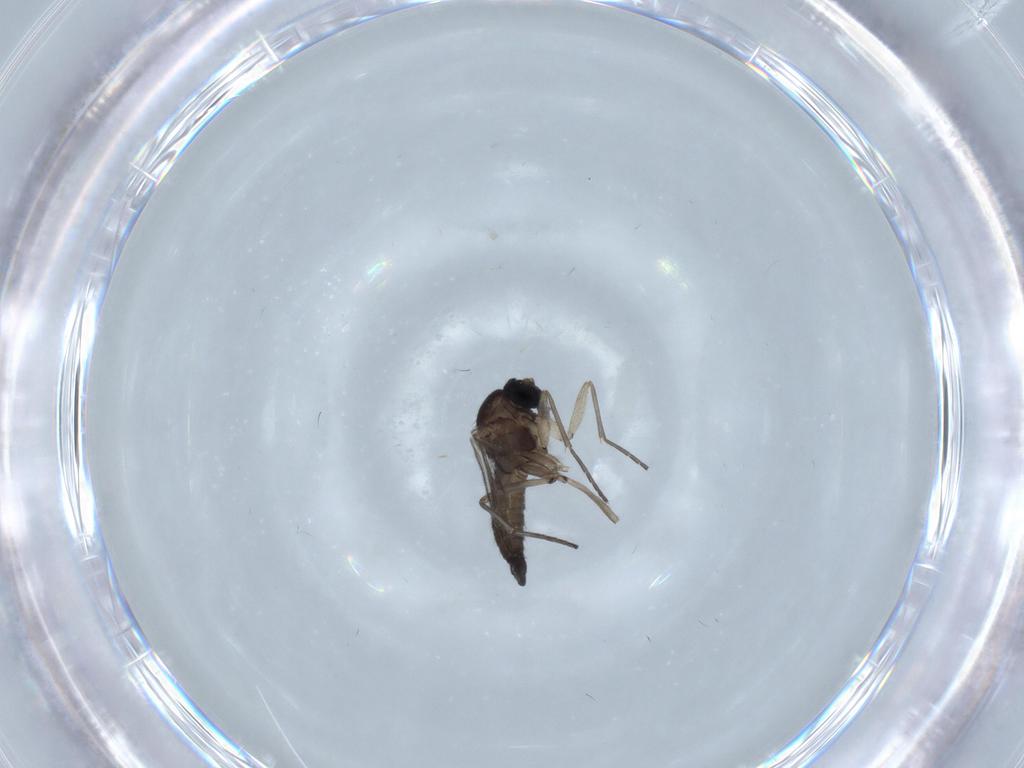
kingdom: Animalia
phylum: Arthropoda
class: Insecta
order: Diptera
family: Sciaridae
